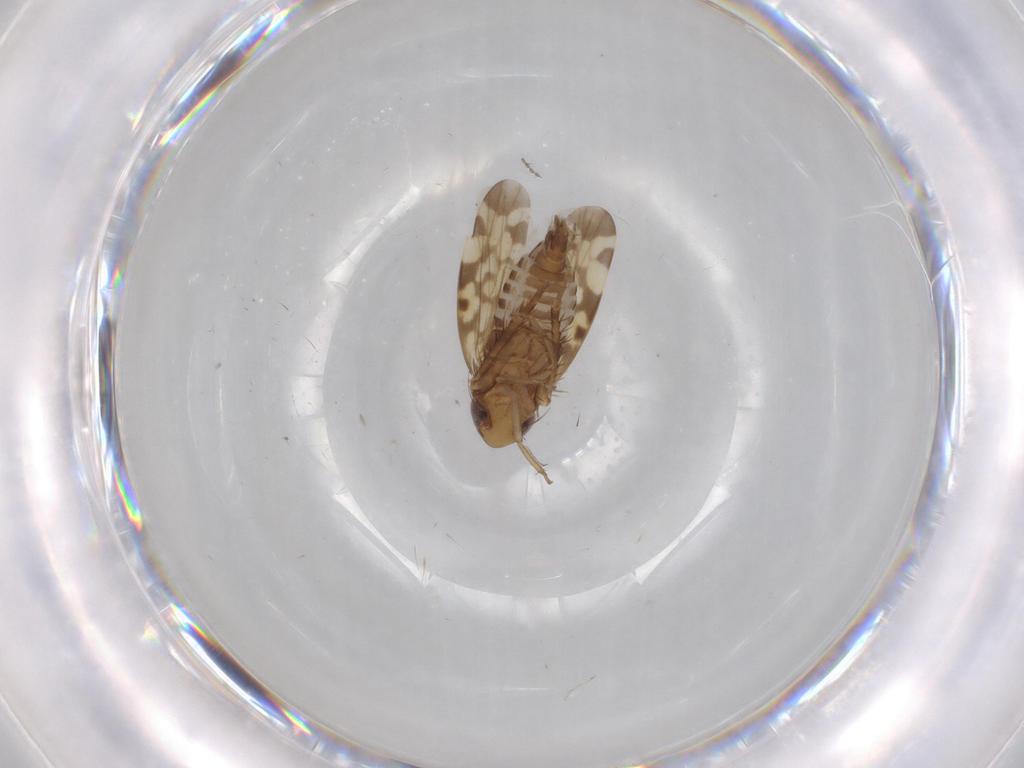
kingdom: Animalia
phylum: Arthropoda
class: Insecta
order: Hemiptera
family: Cicadellidae
